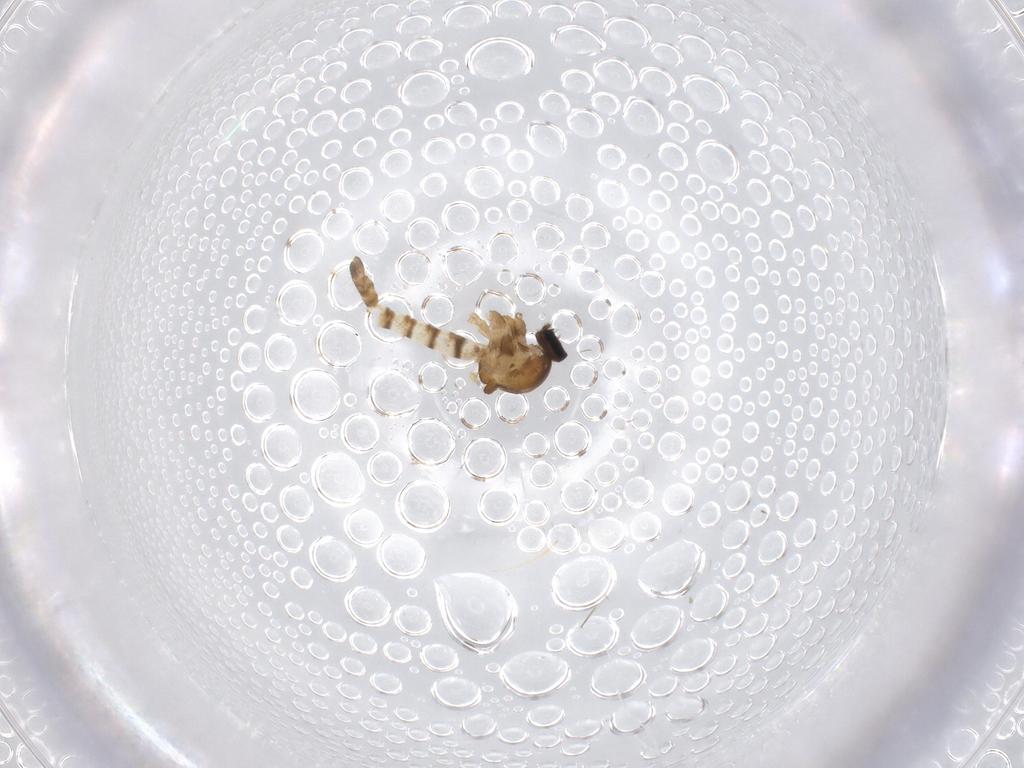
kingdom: Animalia
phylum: Arthropoda
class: Insecta
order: Diptera
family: Ceratopogonidae
